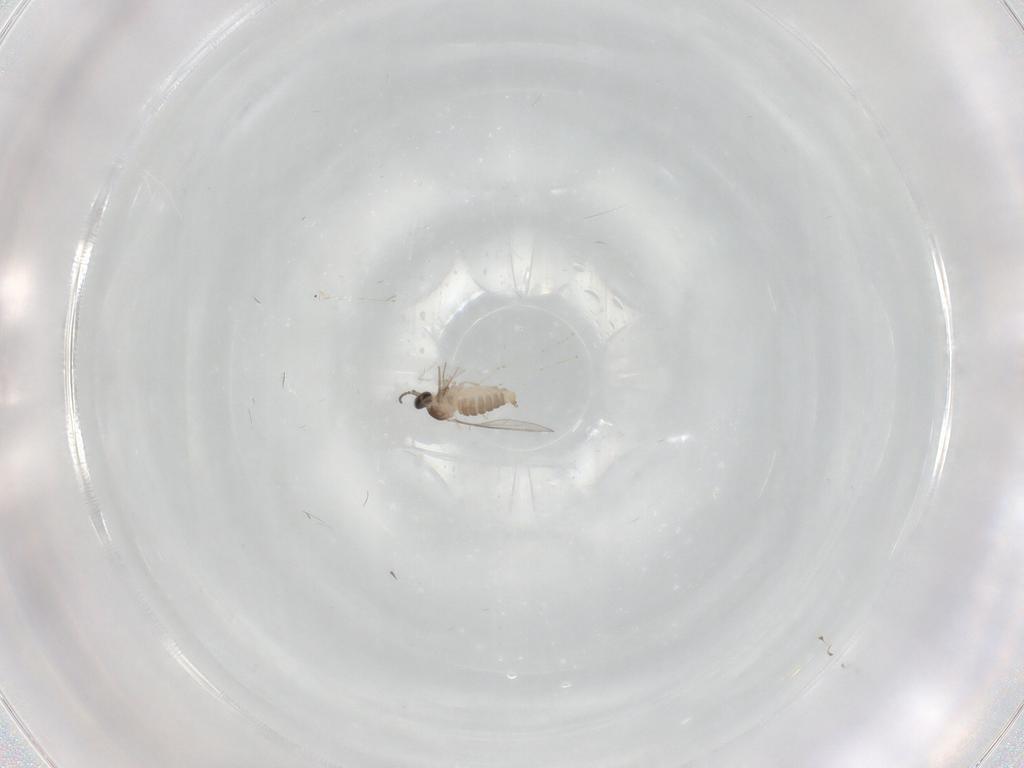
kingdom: Animalia
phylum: Arthropoda
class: Insecta
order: Diptera
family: Cecidomyiidae
